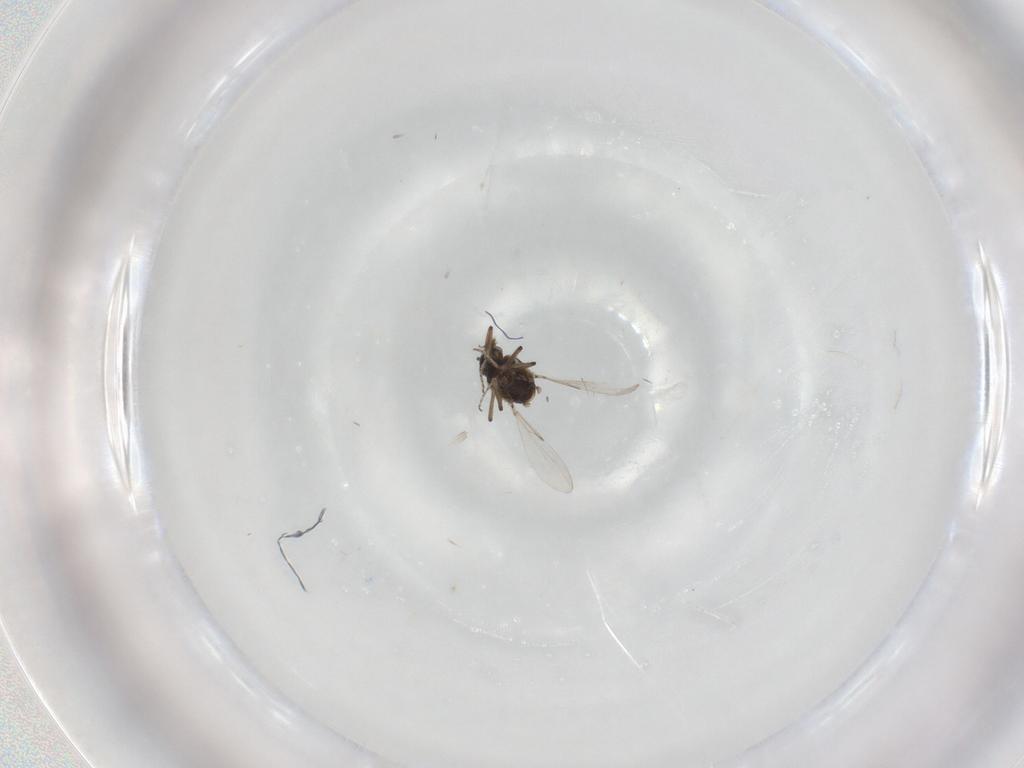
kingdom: Animalia
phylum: Arthropoda
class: Insecta
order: Diptera
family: Ceratopogonidae
